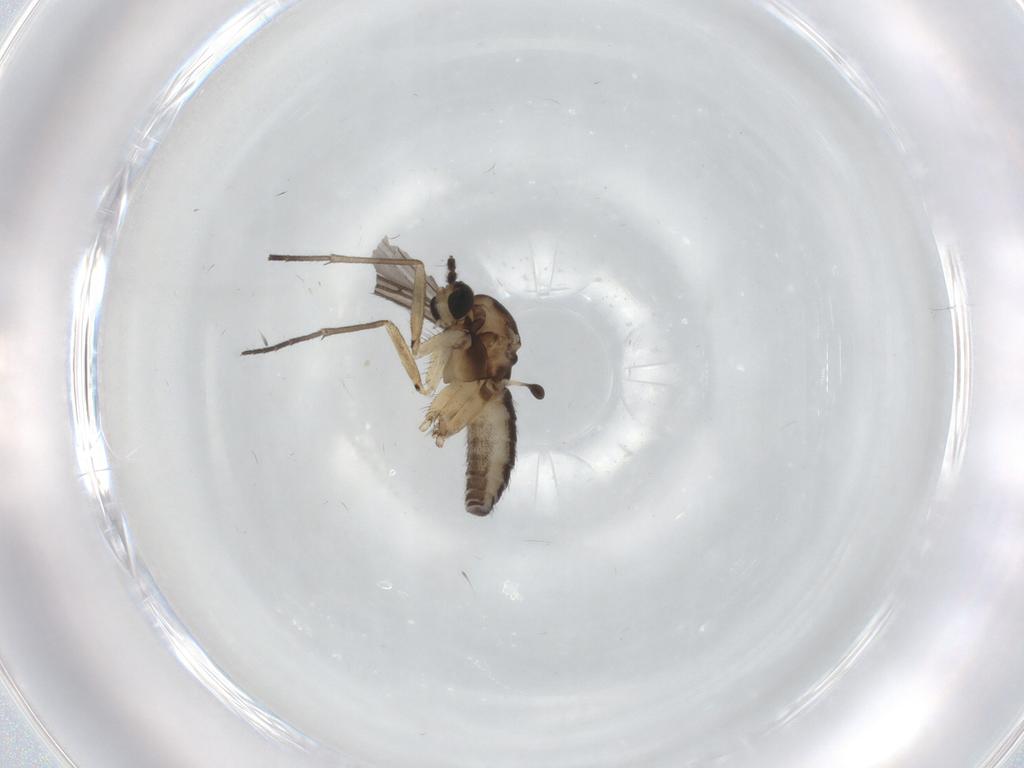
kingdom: Animalia
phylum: Arthropoda
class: Insecta
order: Diptera
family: Sciaridae
